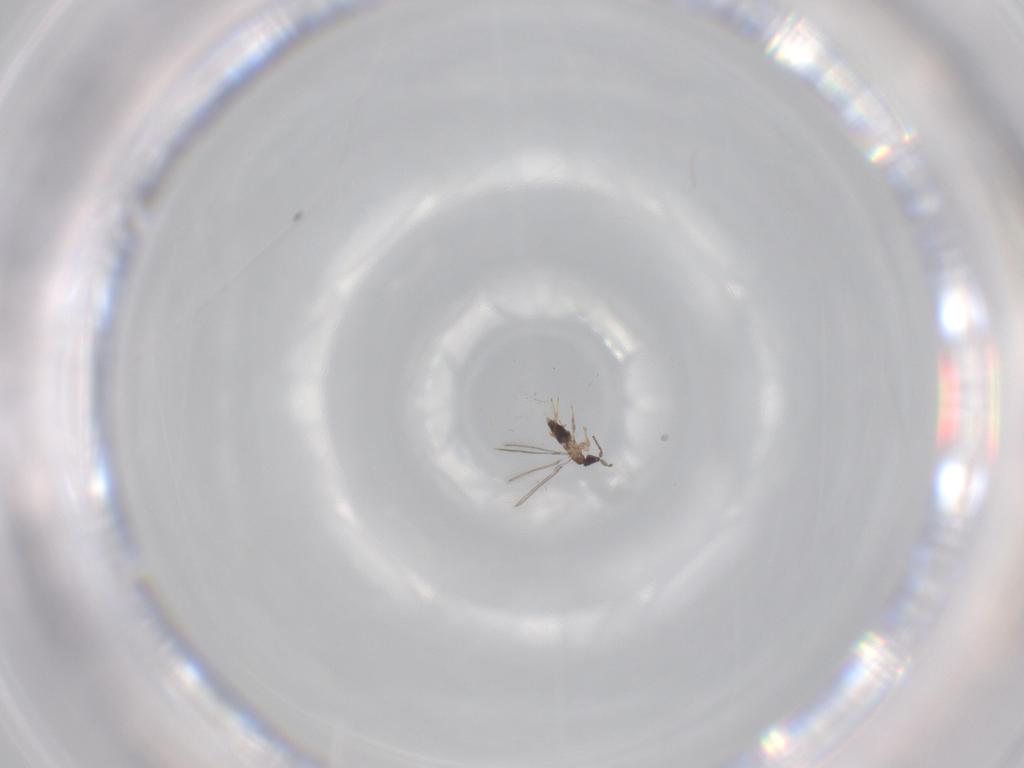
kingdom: Animalia
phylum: Arthropoda
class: Insecta
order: Hymenoptera
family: Mymaridae
